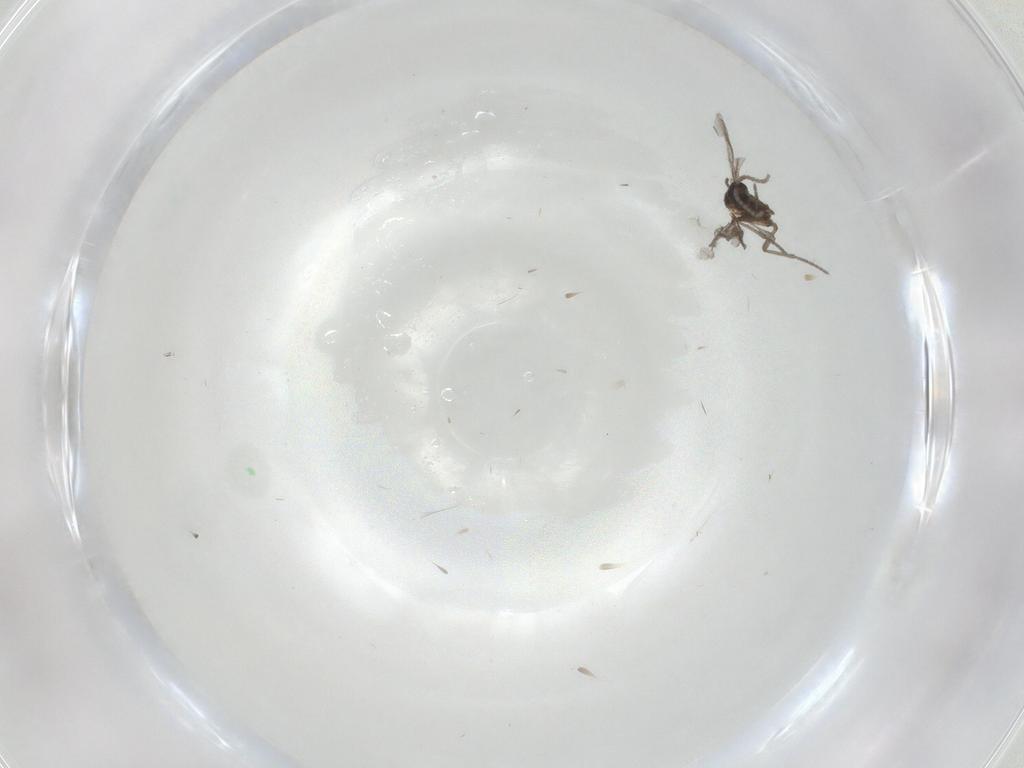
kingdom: Animalia
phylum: Arthropoda
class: Insecta
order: Diptera
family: Sciaridae
